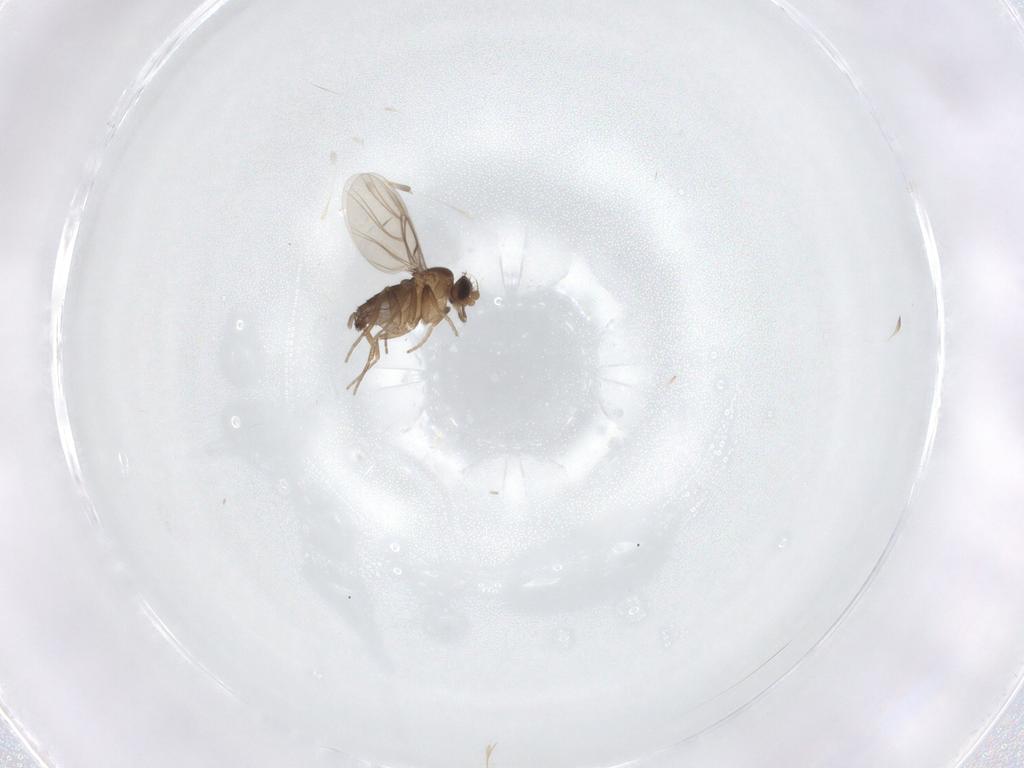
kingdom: Animalia
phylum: Arthropoda
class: Insecta
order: Diptera
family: Chironomidae
